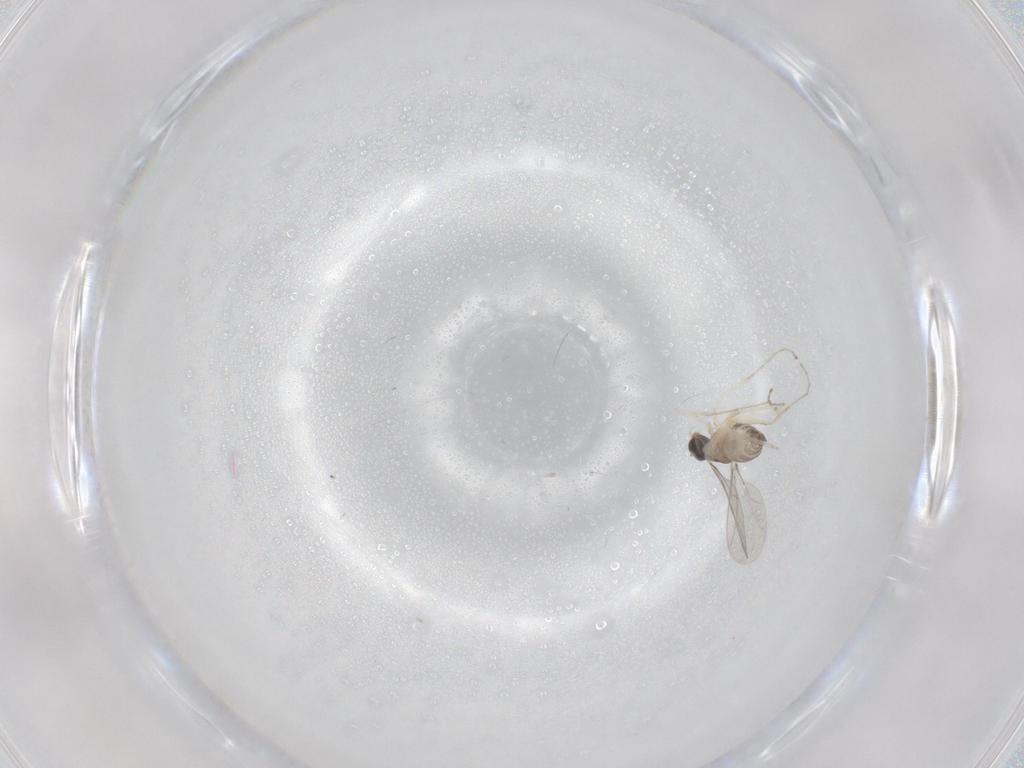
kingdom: Animalia
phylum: Arthropoda
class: Insecta
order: Diptera
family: Cecidomyiidae
